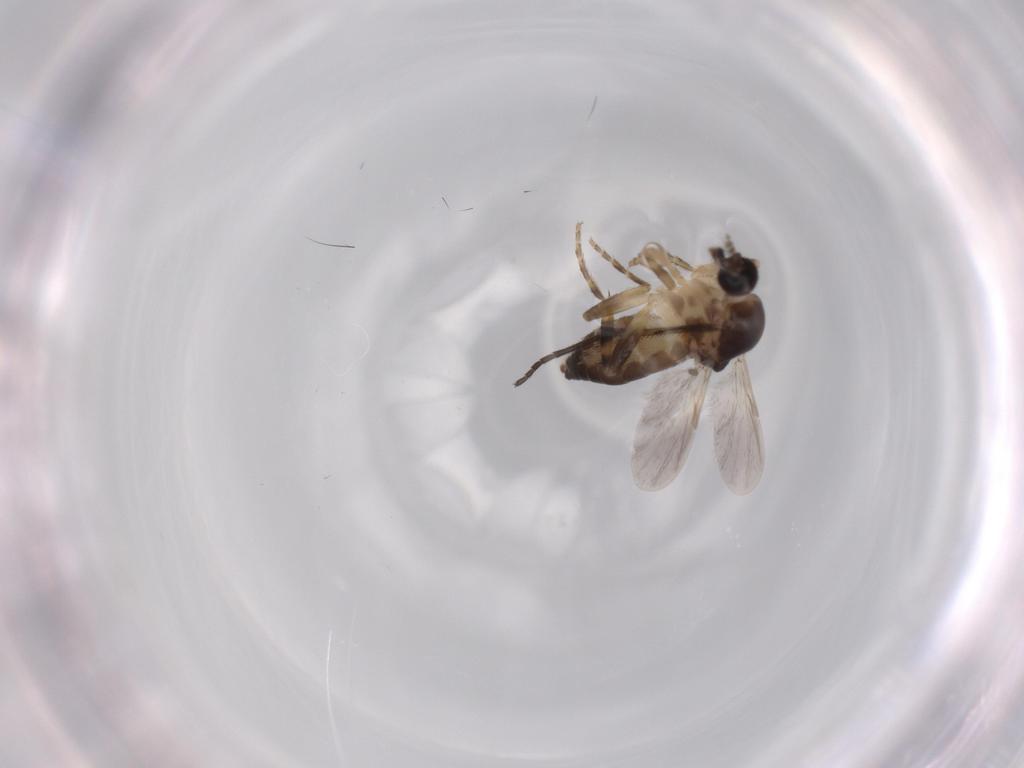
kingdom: Animalia
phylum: Arthropoda
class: Insecta
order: Diptera
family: Ceratopogonidae
